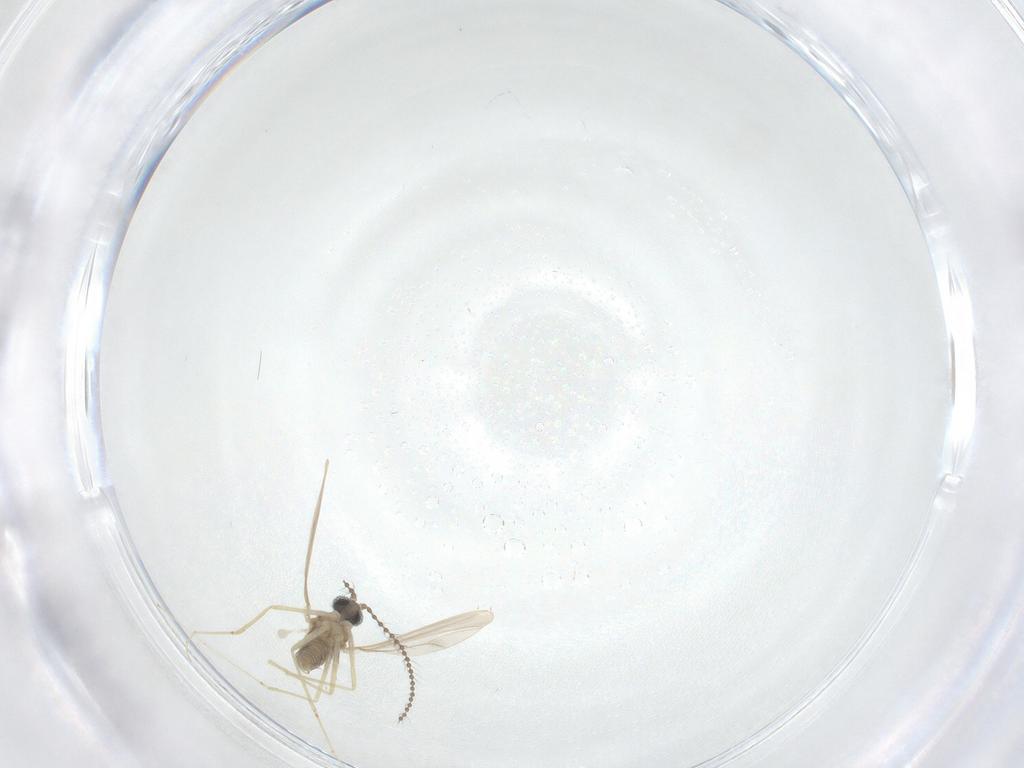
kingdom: Animalia
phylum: Arthropoda
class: Insecta
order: Diptera
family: Cecidomyiidae
